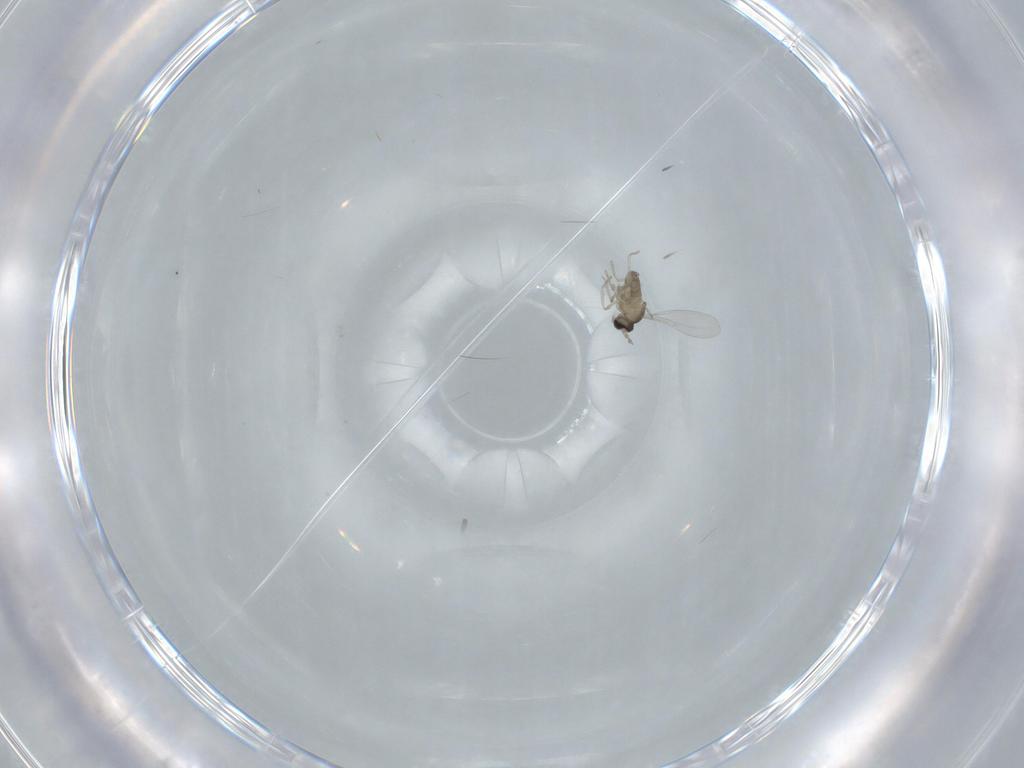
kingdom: Animalia
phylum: Arthropoda
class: Insecta
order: Diptera
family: Cecidomyiidae
